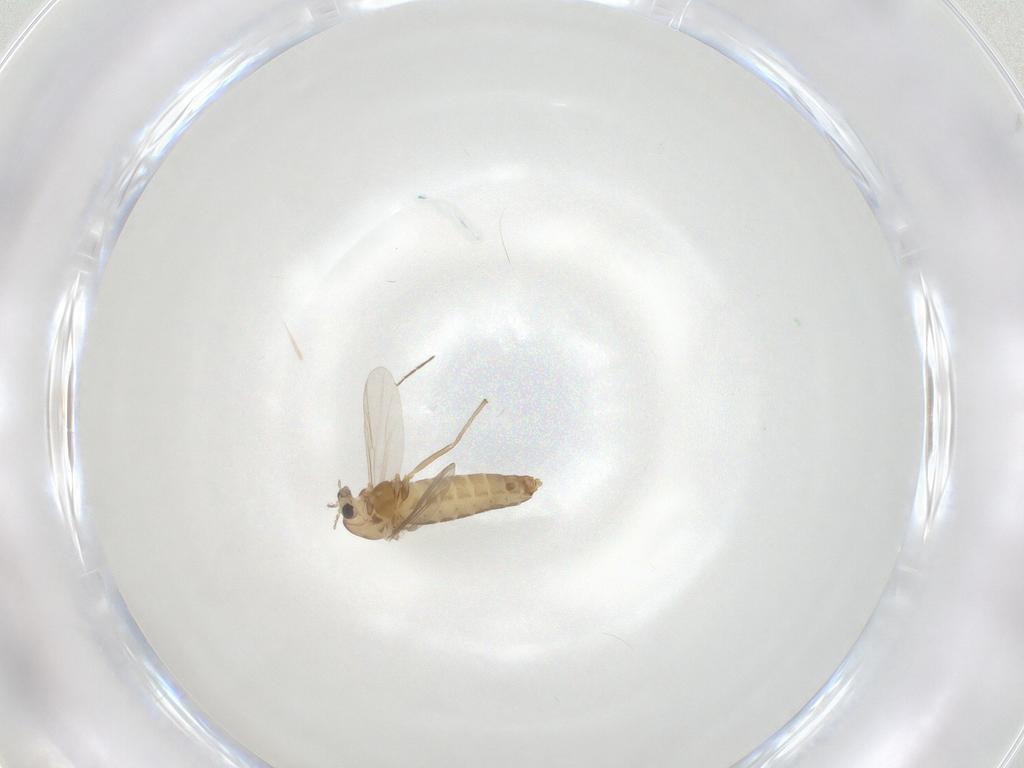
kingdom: Animalia
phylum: Arthropoda
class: Insecta
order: Diptera
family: Chironomidae
